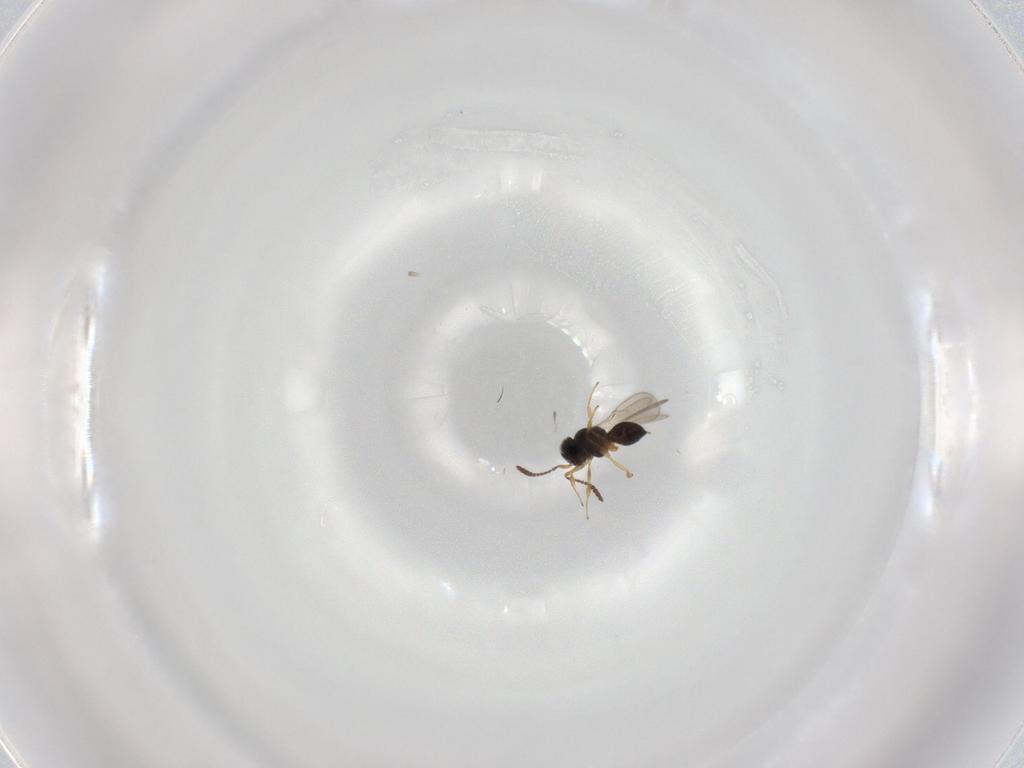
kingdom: Animalia
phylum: Arthropoda
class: Insecta
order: Hymenoptera
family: Scelionidae
